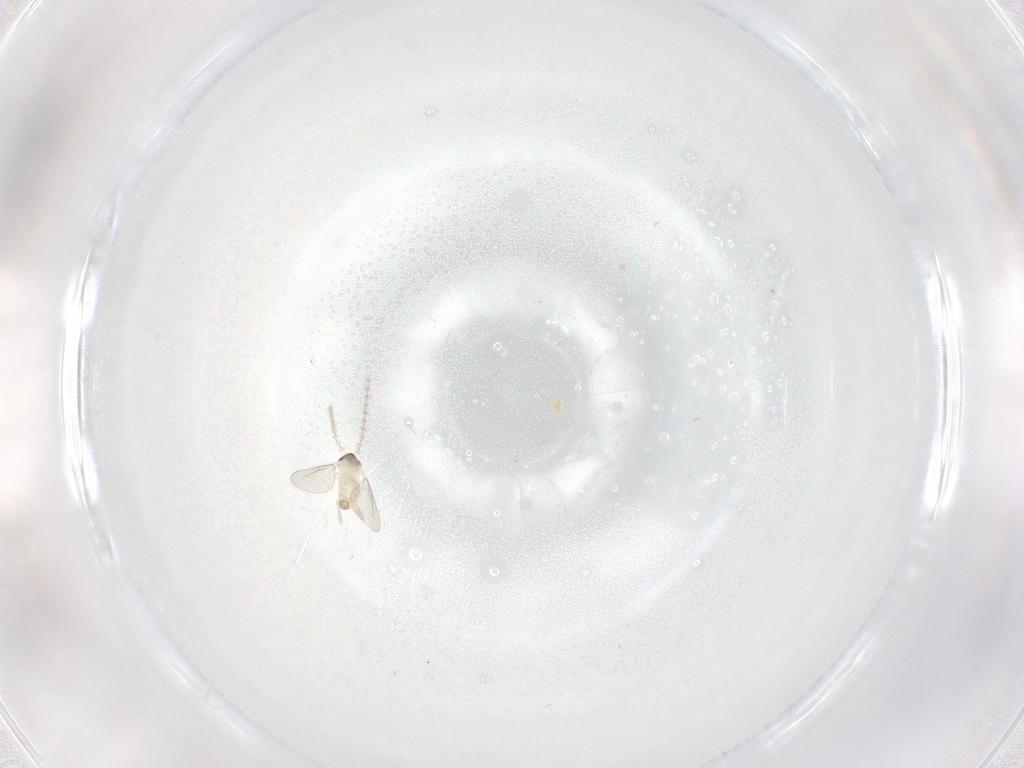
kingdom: Animalia
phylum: Arthropoda
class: Insecta
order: Diptera
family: Cecidomyiidae
